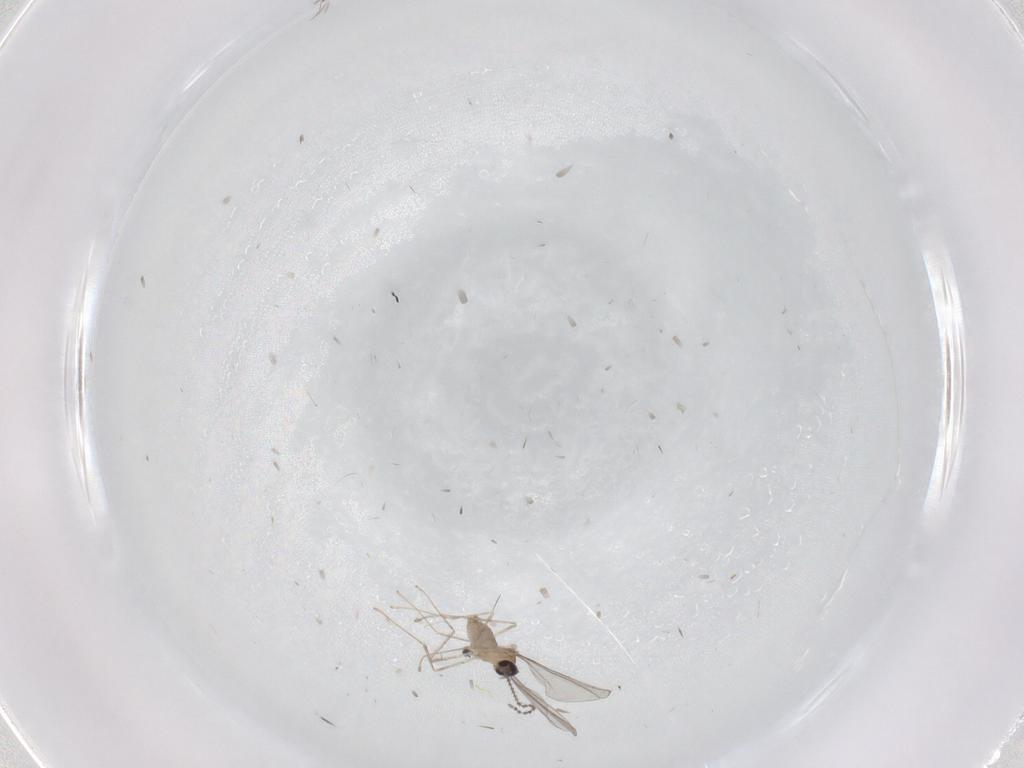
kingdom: Animalia
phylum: Arthropoda
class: Insecta
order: Diptera
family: Cecidomyiidae
